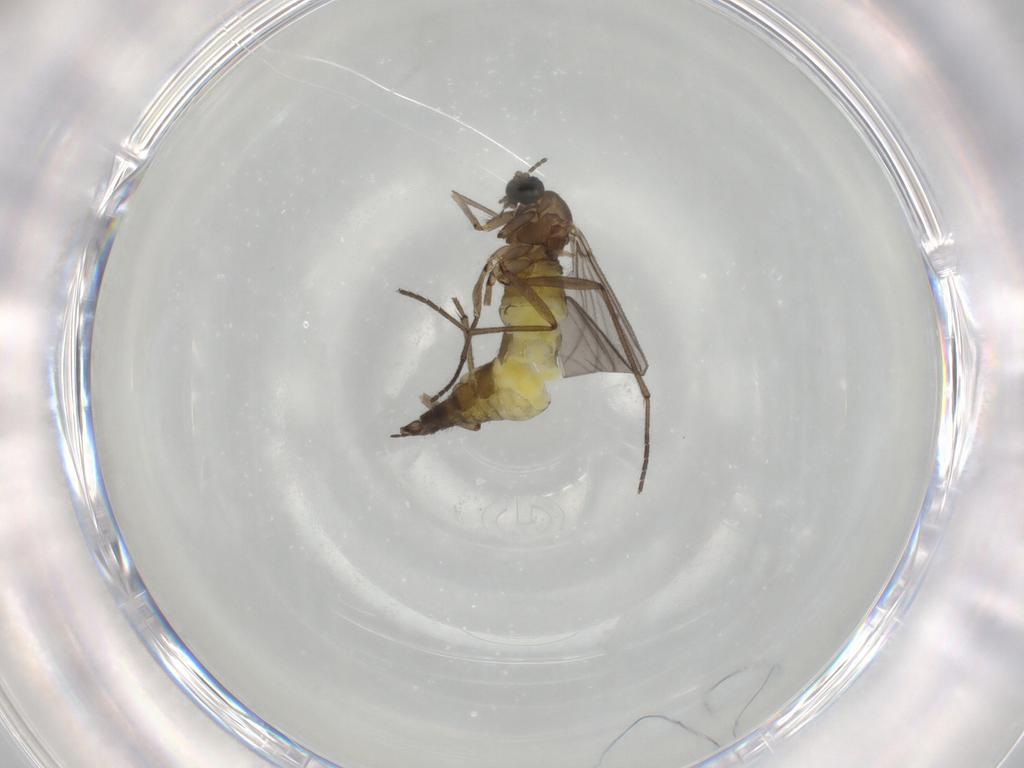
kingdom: Animalia
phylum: Arthropoda
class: Insecta
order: Diptera
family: Sciaridae
